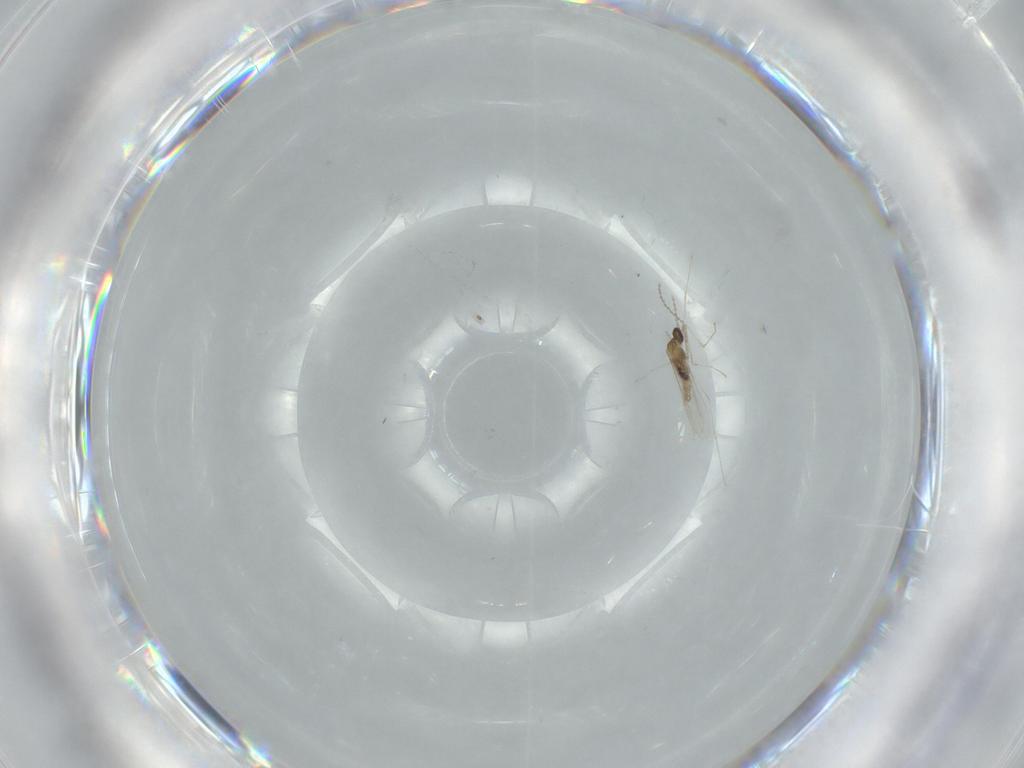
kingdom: Animalia
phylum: Arthropoda
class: Insecta
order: Diptera
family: Cecidomyiidae
